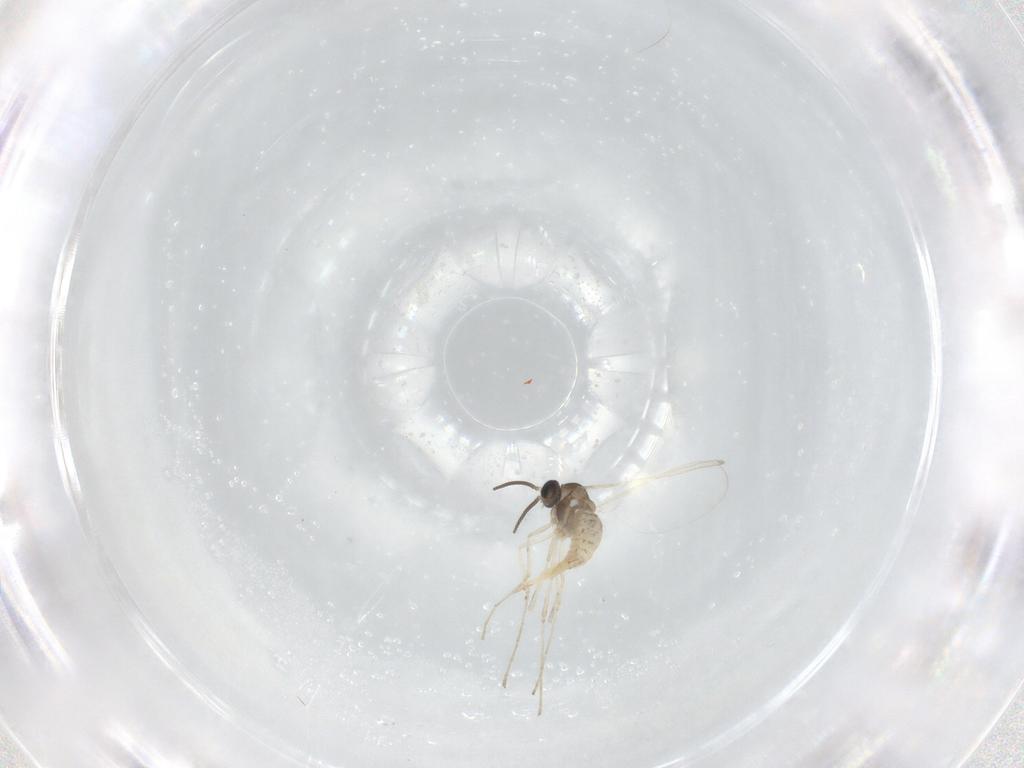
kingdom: Animalia
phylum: Arthropoda
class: Insecta
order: Diptera
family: Cecidomyiidae
